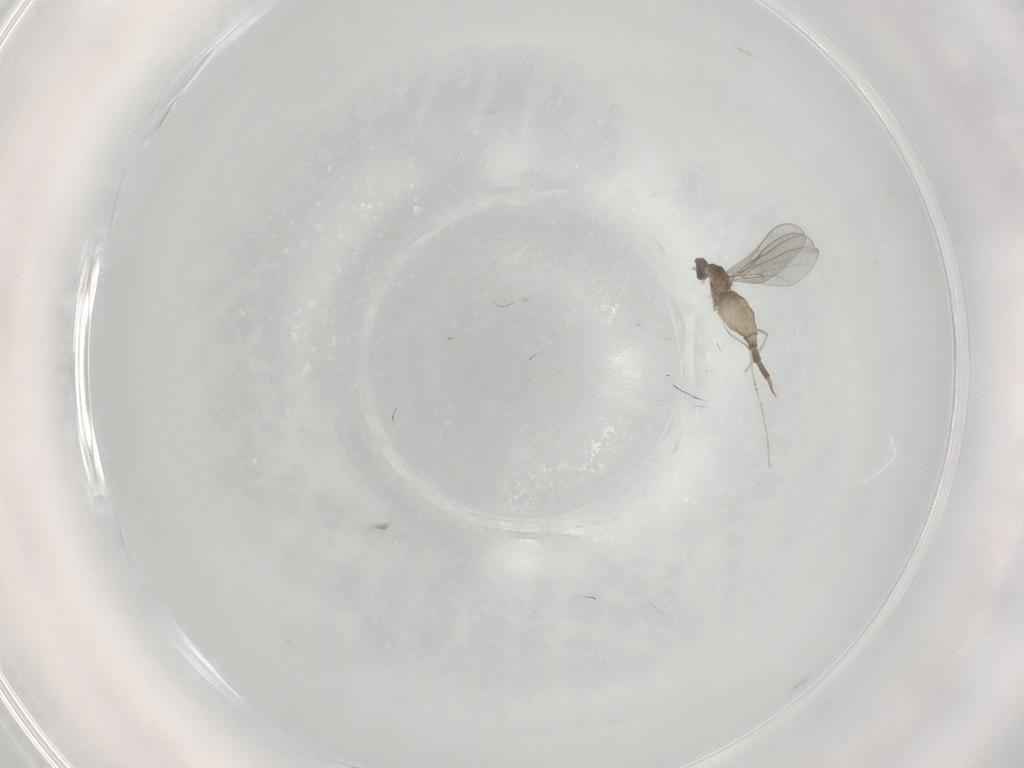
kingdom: Animalia
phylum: Arthropoda
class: Insecta
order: Diptera
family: Cecidomyiidae
